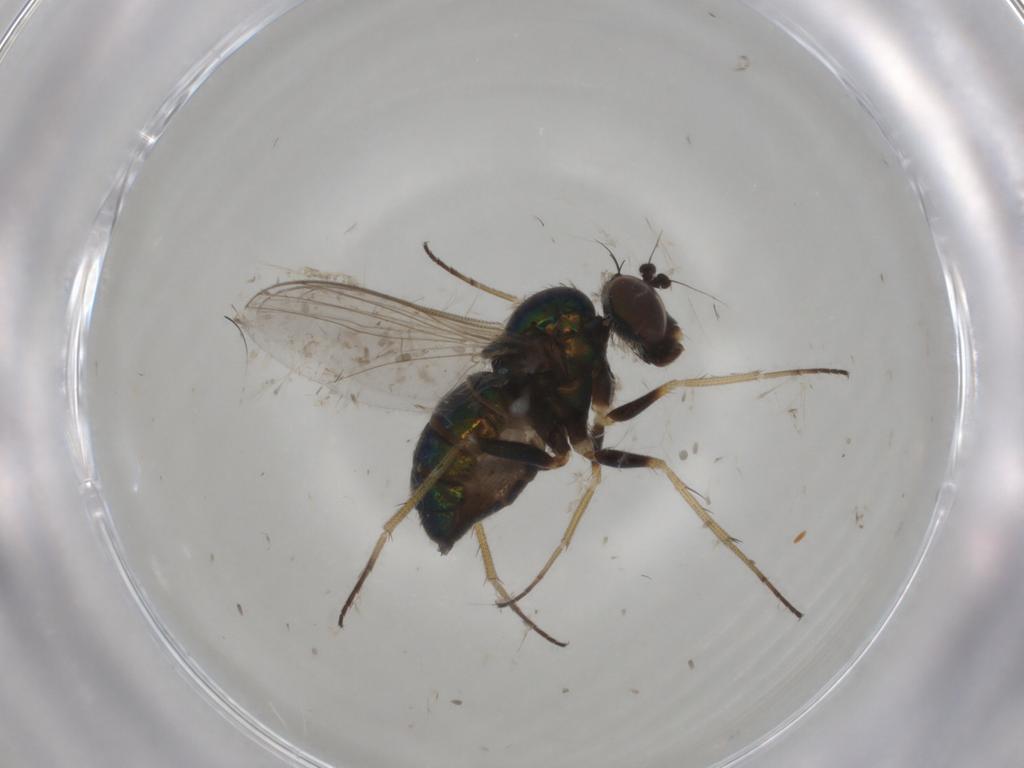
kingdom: Animalia
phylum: Arthropoda
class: Insecta
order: Diptera
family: Dolichopodidae
